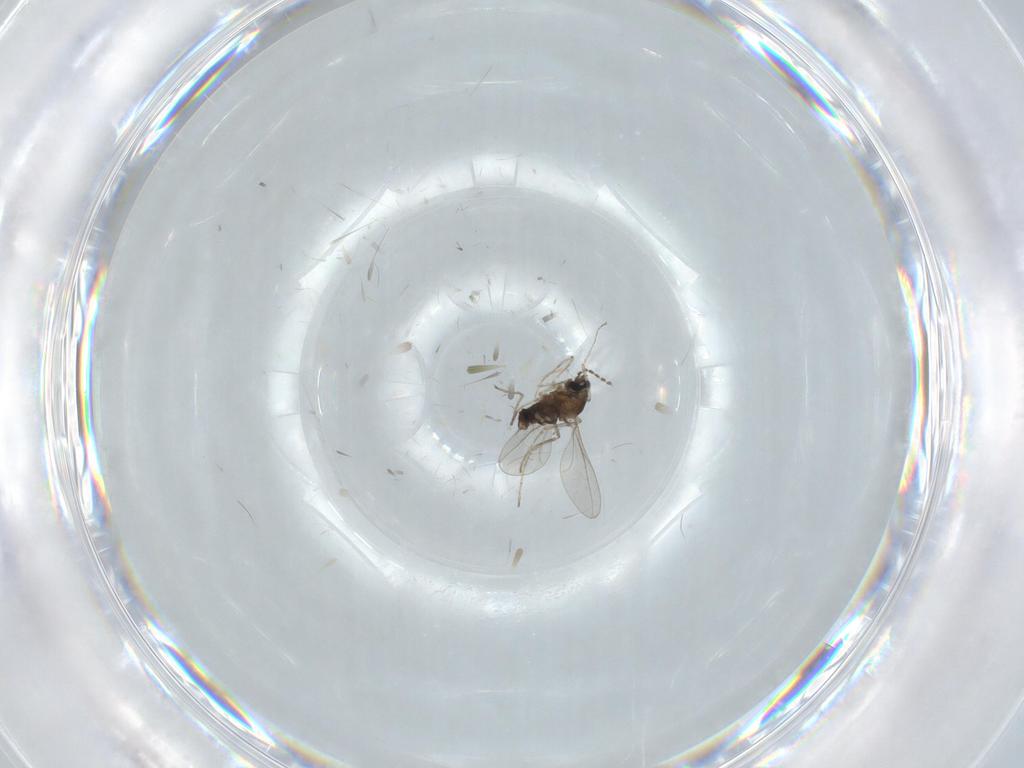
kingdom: Animalia
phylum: Arthropoda
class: Insecta
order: Diptera
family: Cecidomyiidae
